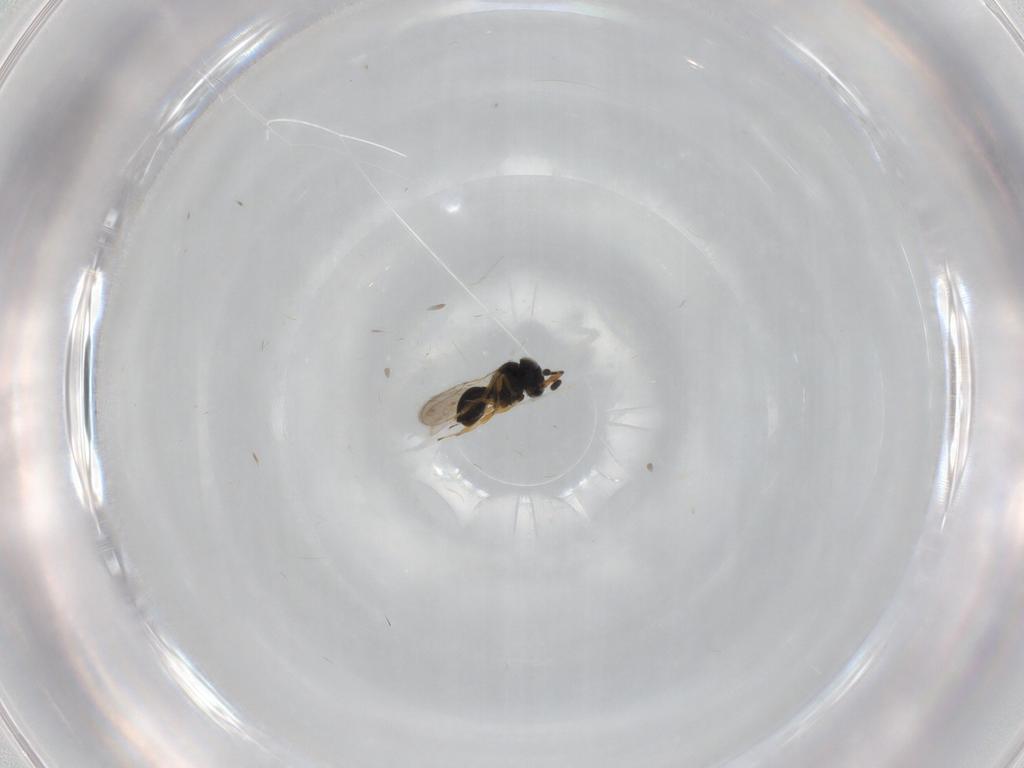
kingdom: Animalia
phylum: Arthropoda
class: Insecta
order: Hymenoptera
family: Scelionidae
